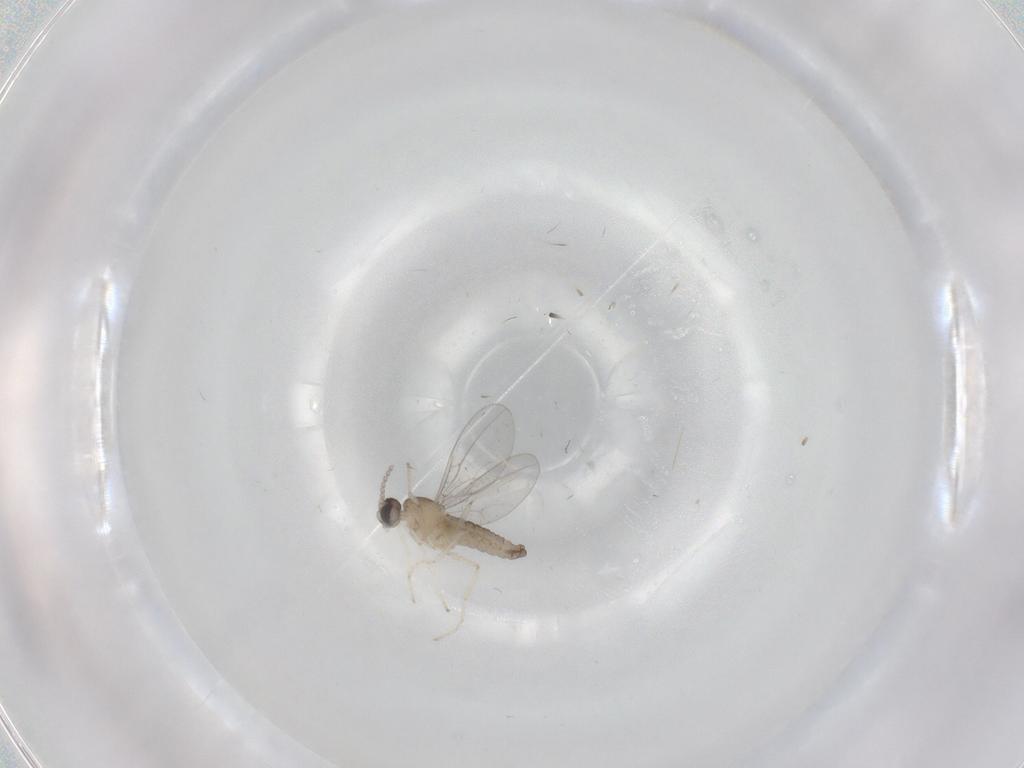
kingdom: Animalia
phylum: Arthropoda
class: Insecta
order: Diptera
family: Cecidomyiidae
